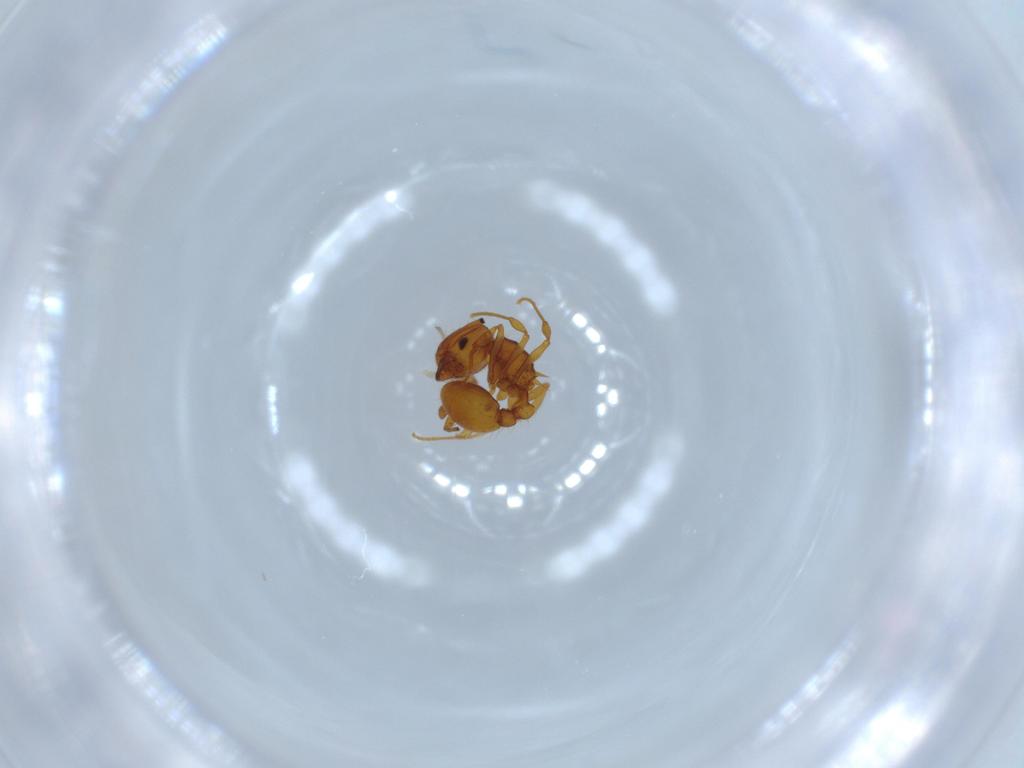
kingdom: Animalia
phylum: Arthropoda
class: Insecta
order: Hymenoptera
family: Formicidae
